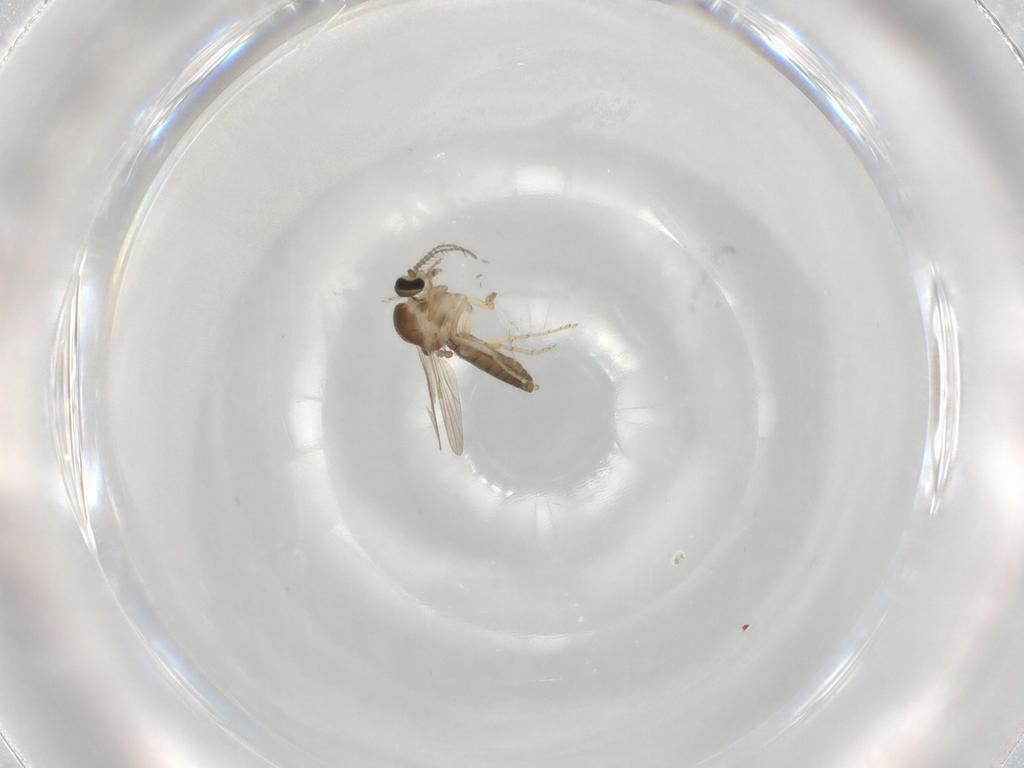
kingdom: Animalia
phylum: Arthropoda
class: Insecta
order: Diptera
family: Ceratopogonidae
